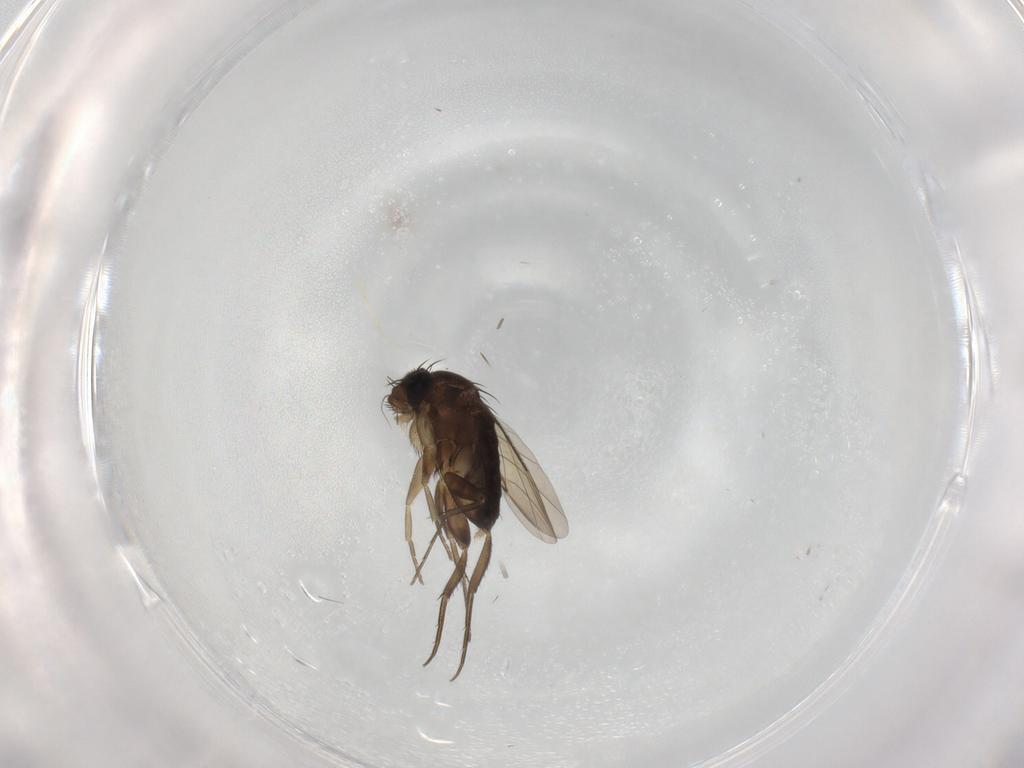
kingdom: Animalia
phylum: Arthropoda
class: Insecta
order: Diptera
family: Phoridae
